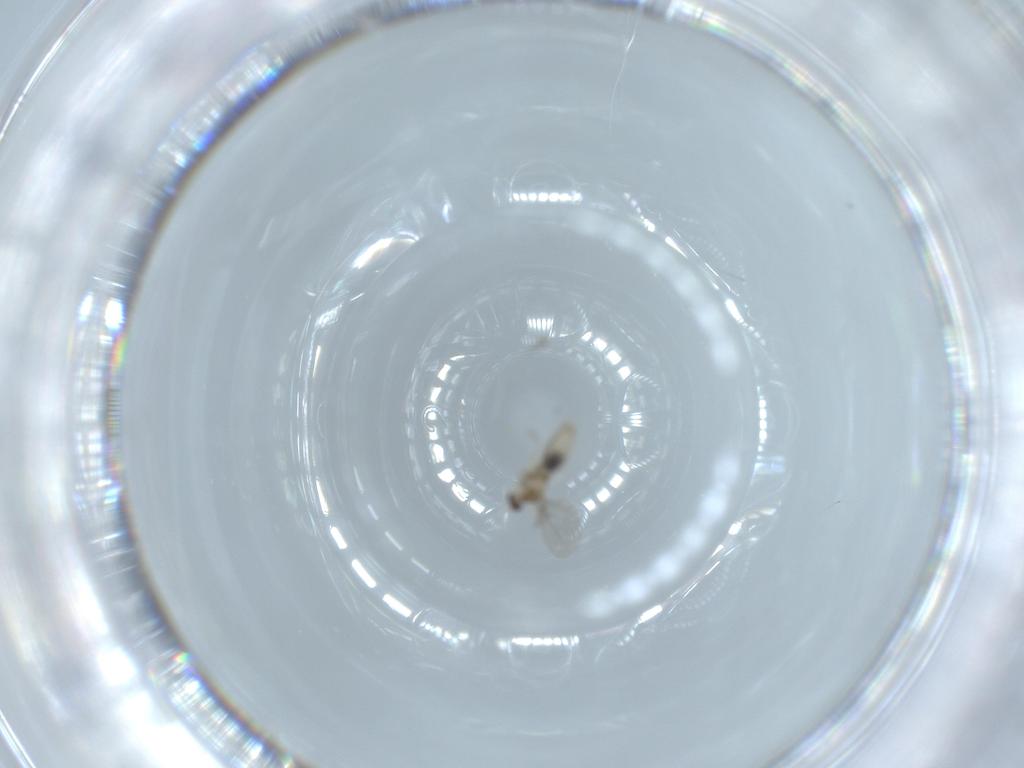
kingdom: Animalia
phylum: Arthropoda
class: Insecta
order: Diptera
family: Cecidomyiidae
